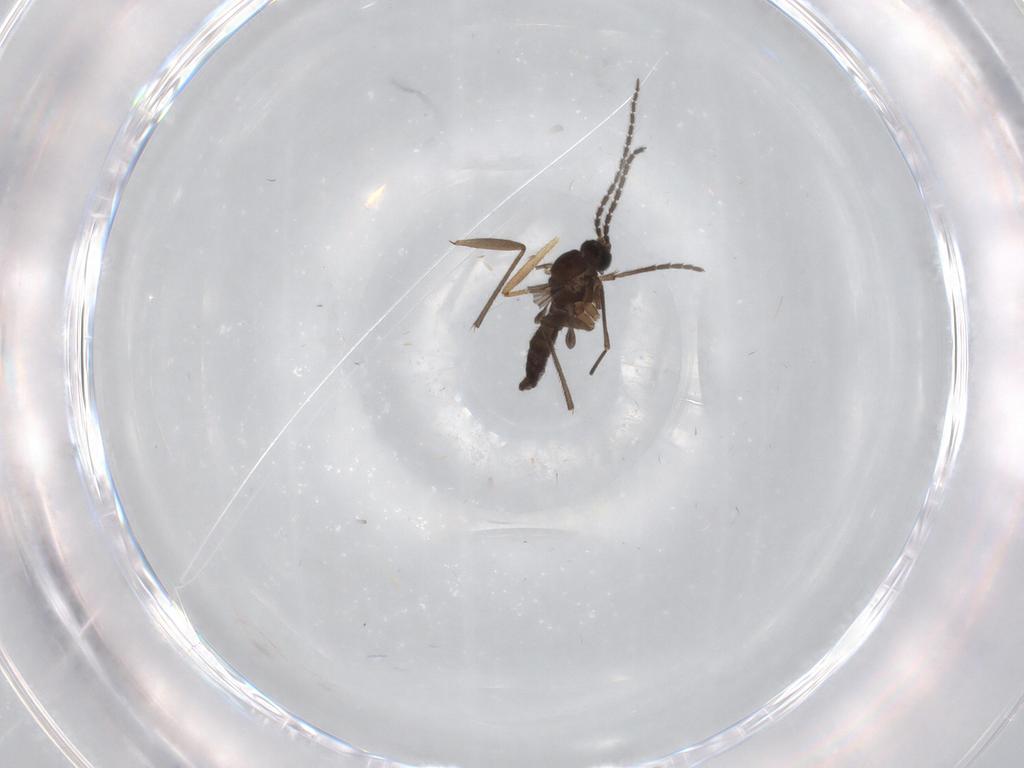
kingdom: Animalia
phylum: Arthropoda
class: Insecta
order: Diptera
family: Sciaridae
